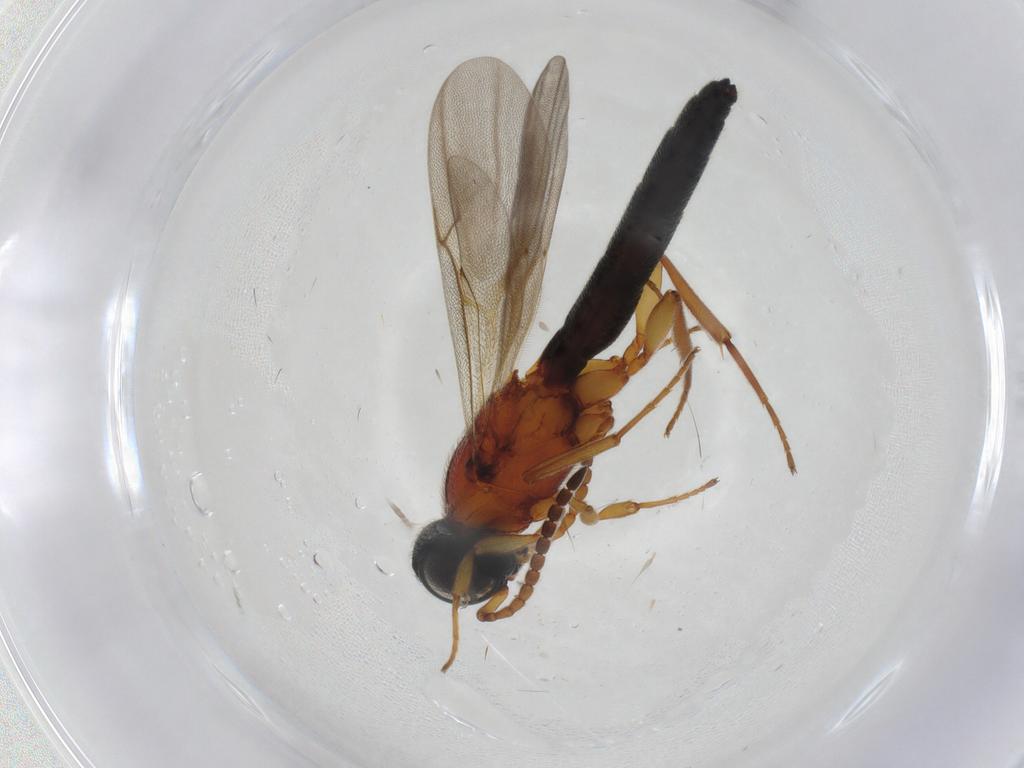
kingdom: Animalia
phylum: Arthropoda
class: Insecta
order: Hymenoptera
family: Scelionidae
